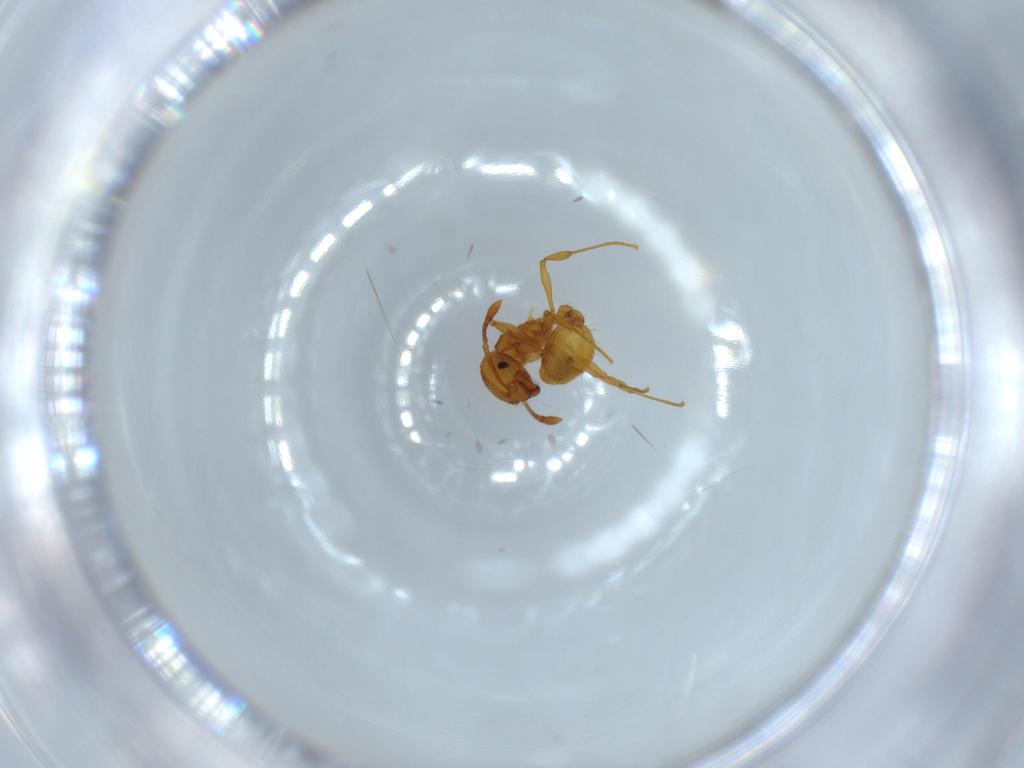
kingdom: Animalia
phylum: Arthropoda
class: Insecta
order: Hymenoptera
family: Formicidae
